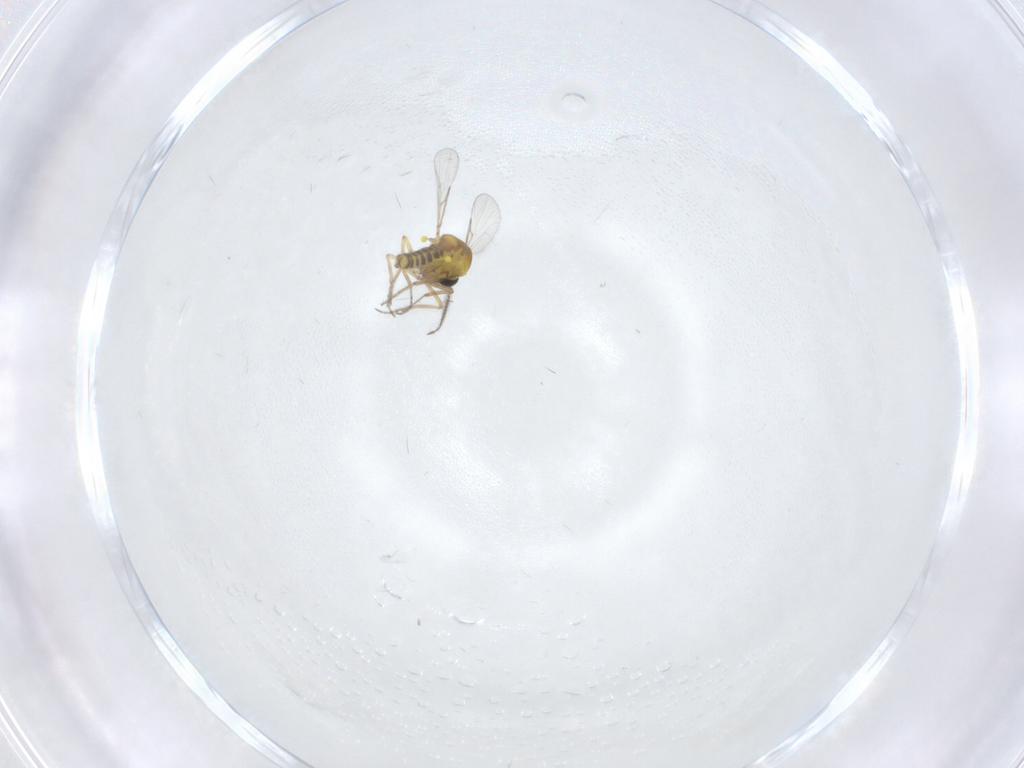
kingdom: Animalia
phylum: Arthropoda
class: Insecta
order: Diptera
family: Ceratopogonidae
